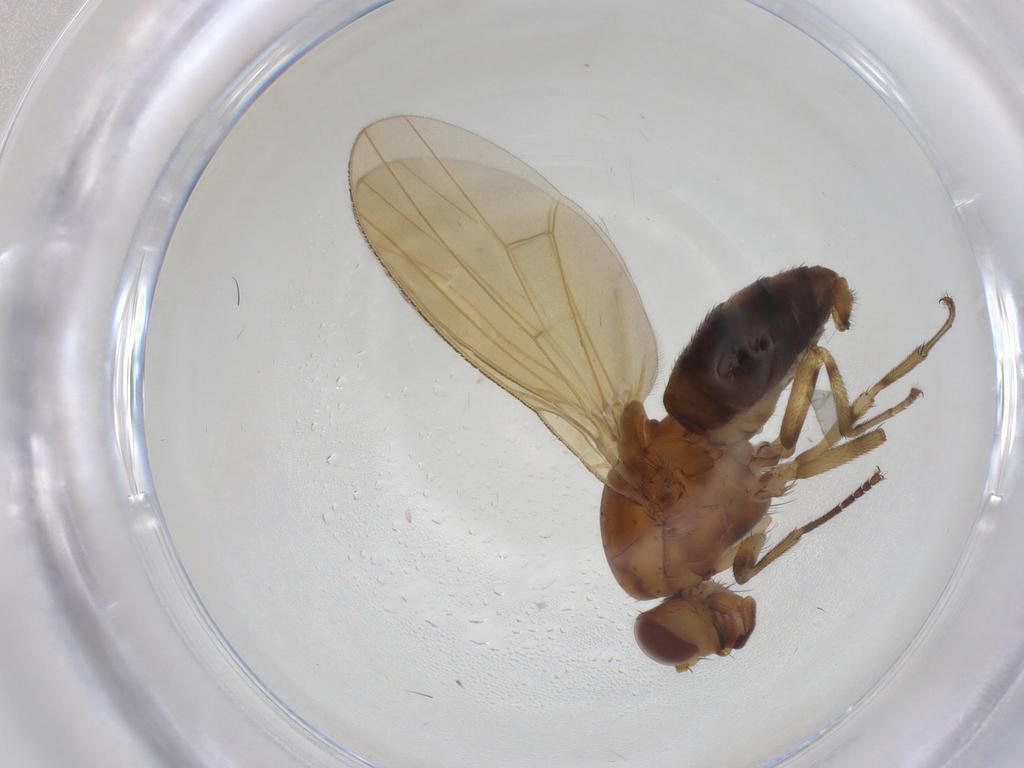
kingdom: Animalia
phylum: Arthropoda
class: Insecta
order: Diptera
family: Lauxaniidae
